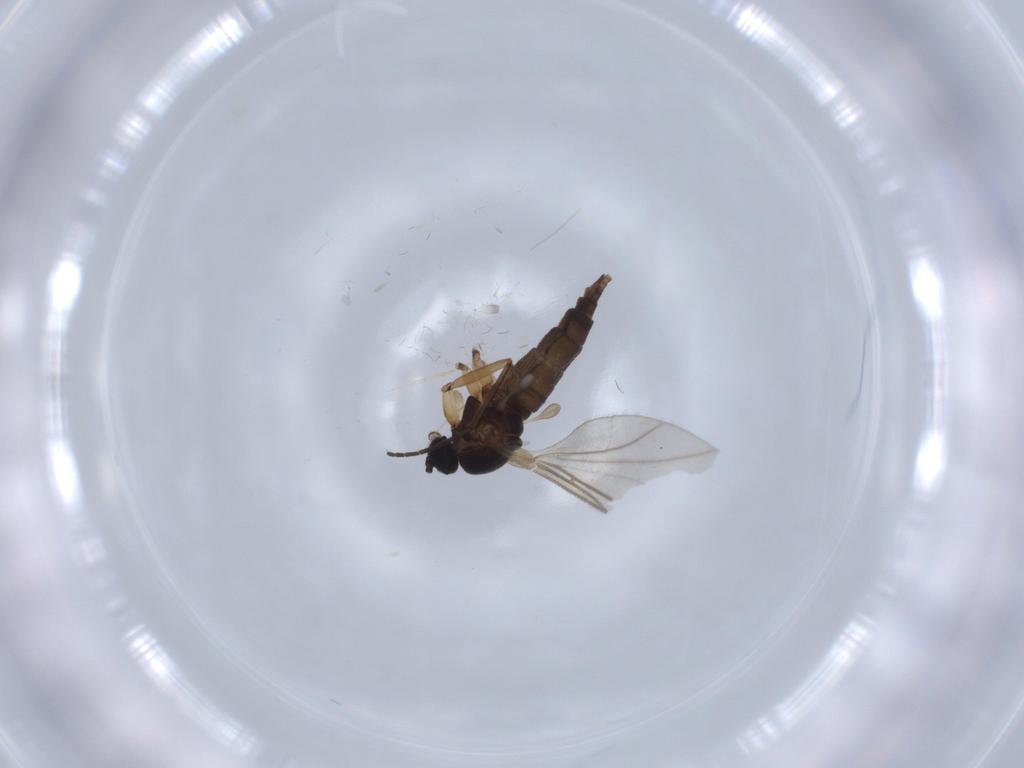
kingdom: Animalia
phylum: Arthropoda
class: Insecta
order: Diptera
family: Sciaridae
